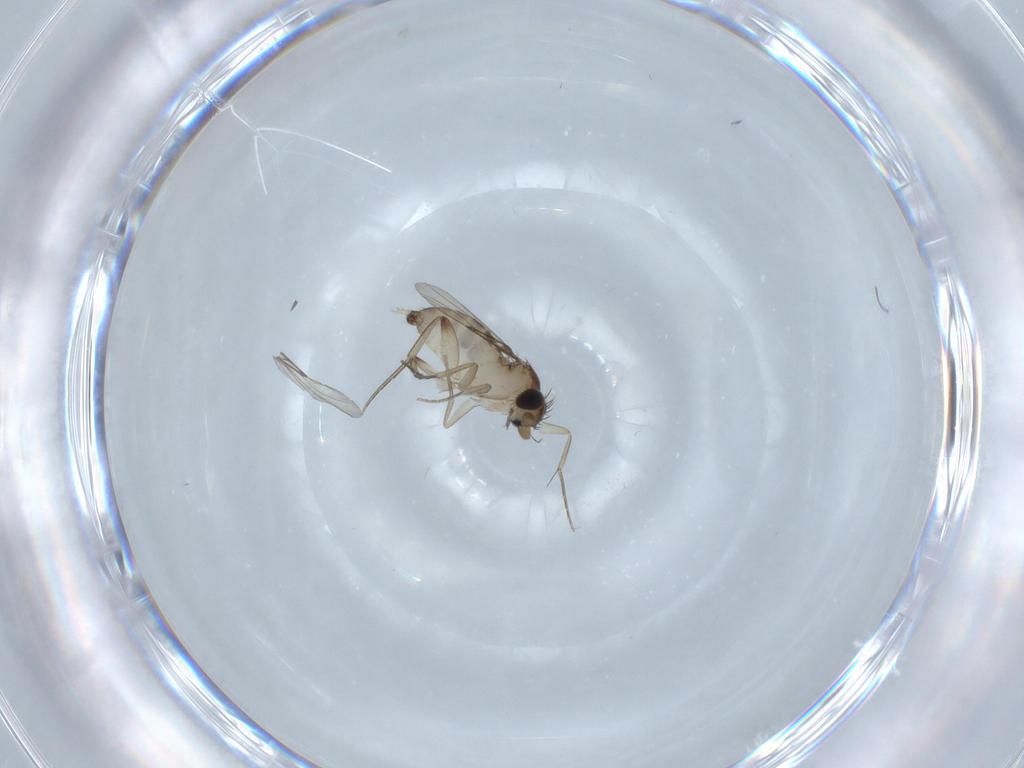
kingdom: Animalia
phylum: Arthropoda
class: Insecta
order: Diptera
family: Phoridae
